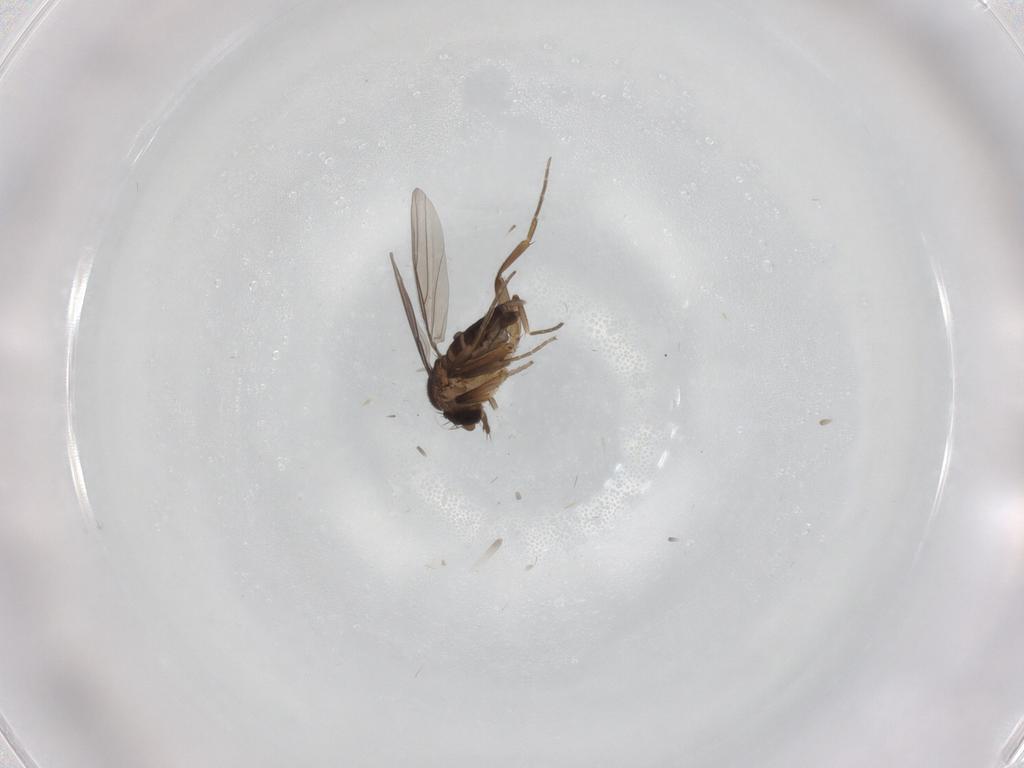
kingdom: Animalia
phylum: Arthropoda
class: Insecta
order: Diptera
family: Phoridae
